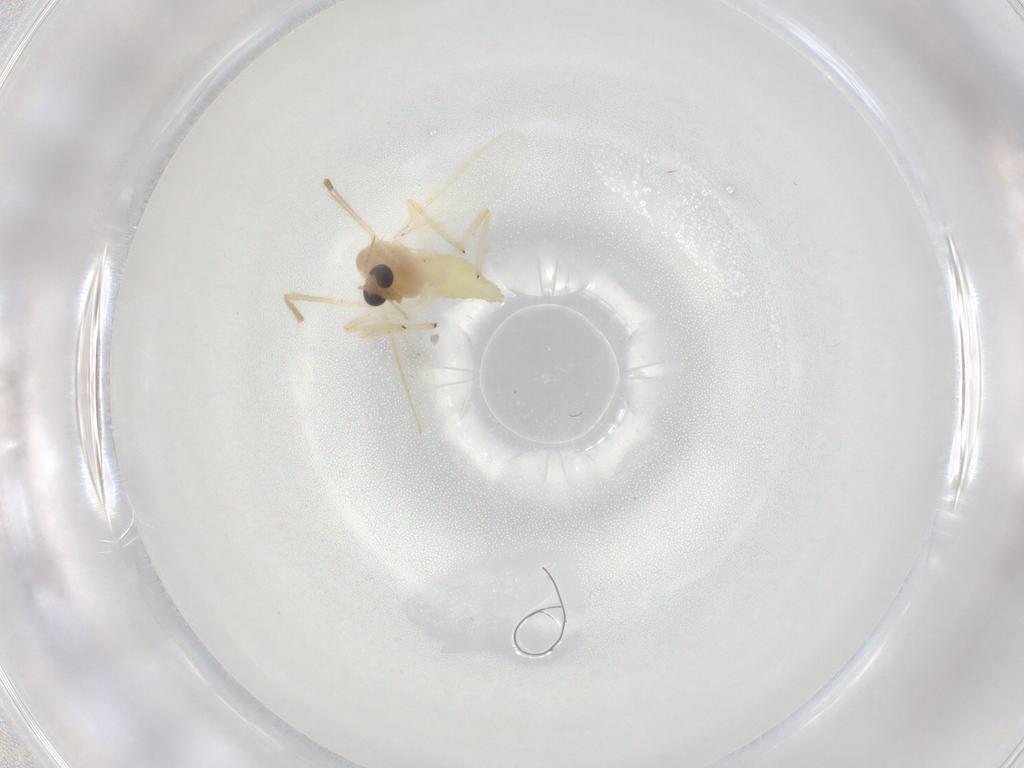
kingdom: Animalia
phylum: Arthropoda
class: Insecta
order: Diptera
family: Chironomidae
